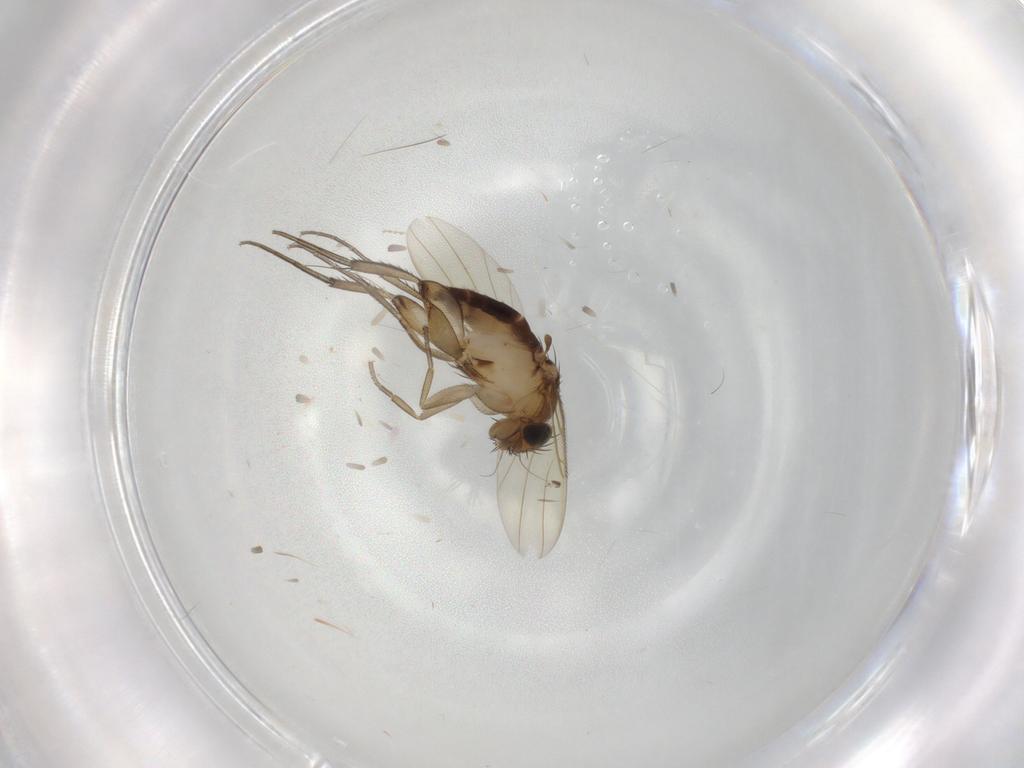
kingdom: Animalia
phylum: Arthropoda
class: Insecta
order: Diptera
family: Phoridae
